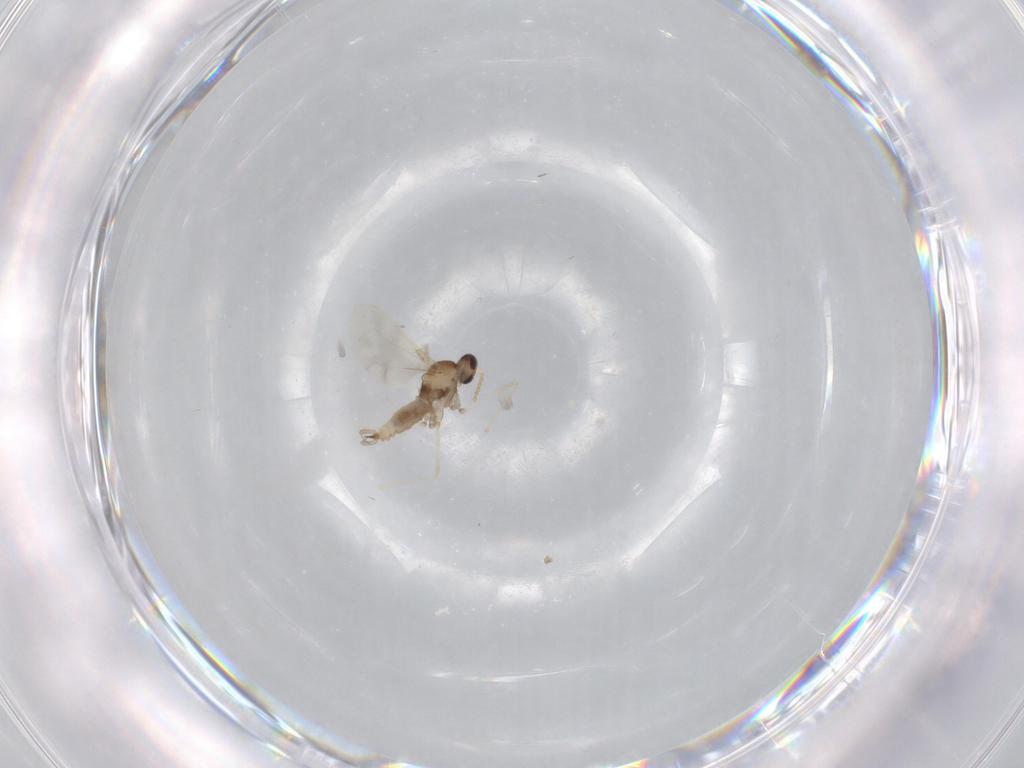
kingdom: Animalia
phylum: Arthropoda
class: Insecta
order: Diptera
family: Cecidomyiidae
